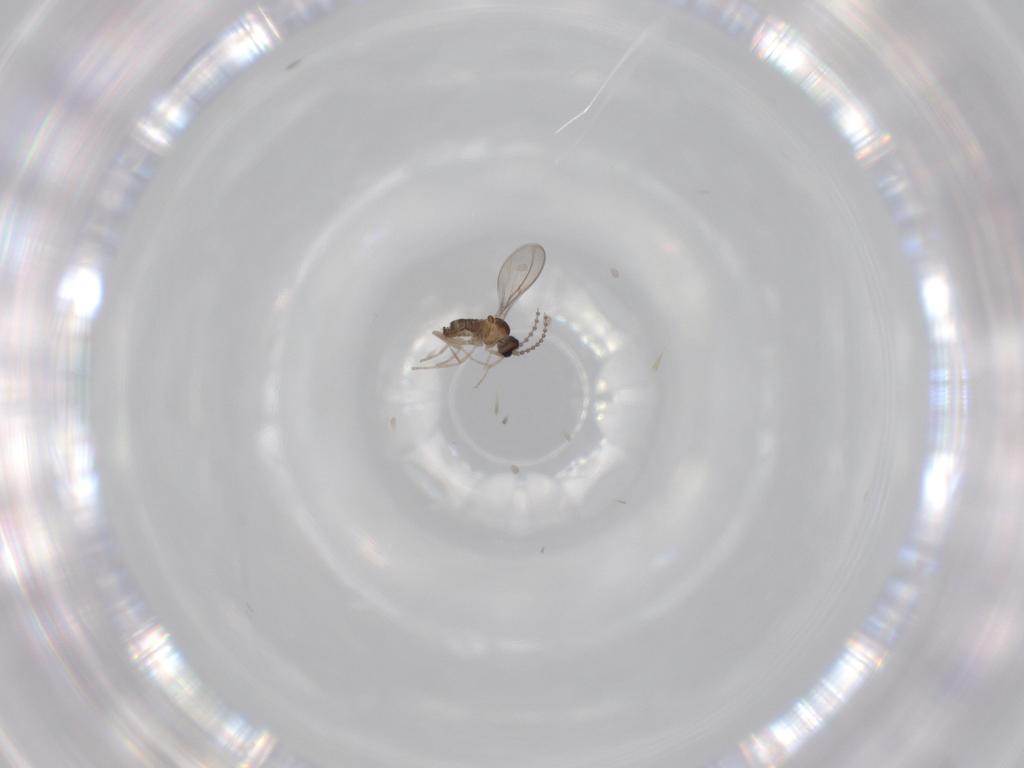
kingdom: Animalia
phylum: Arthropoda
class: Insecta
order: Diptera
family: Cecidomyiidae
